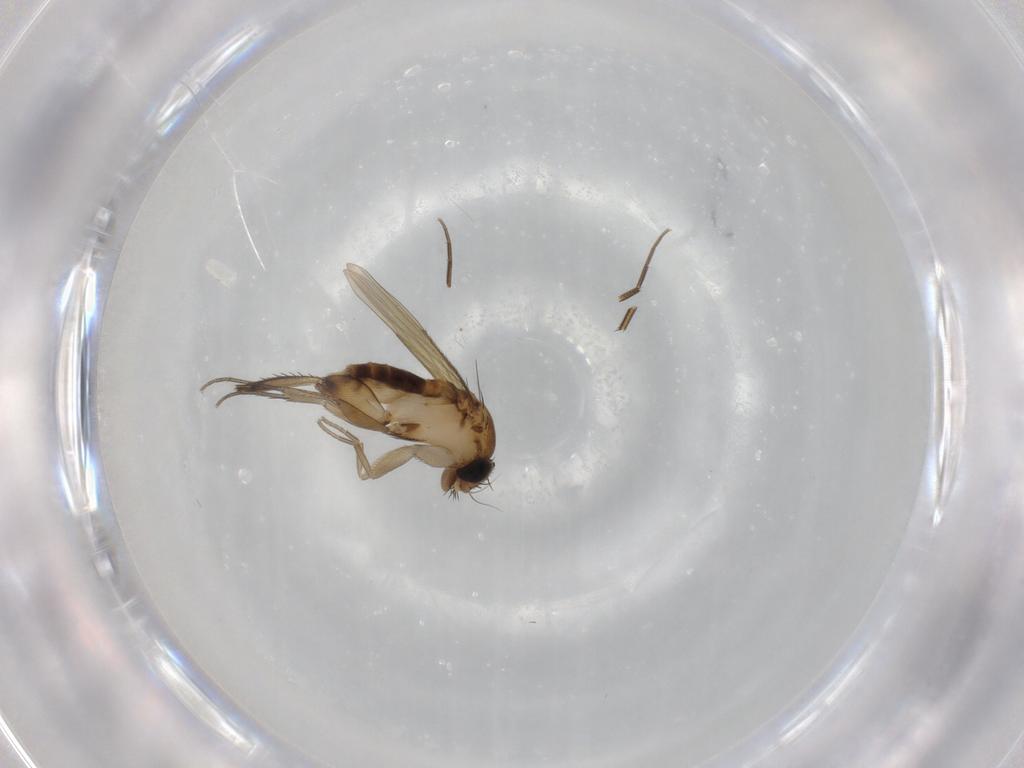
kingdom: Animalia
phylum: Arthropoda
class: Insecta
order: Diptera
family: Phoridae
